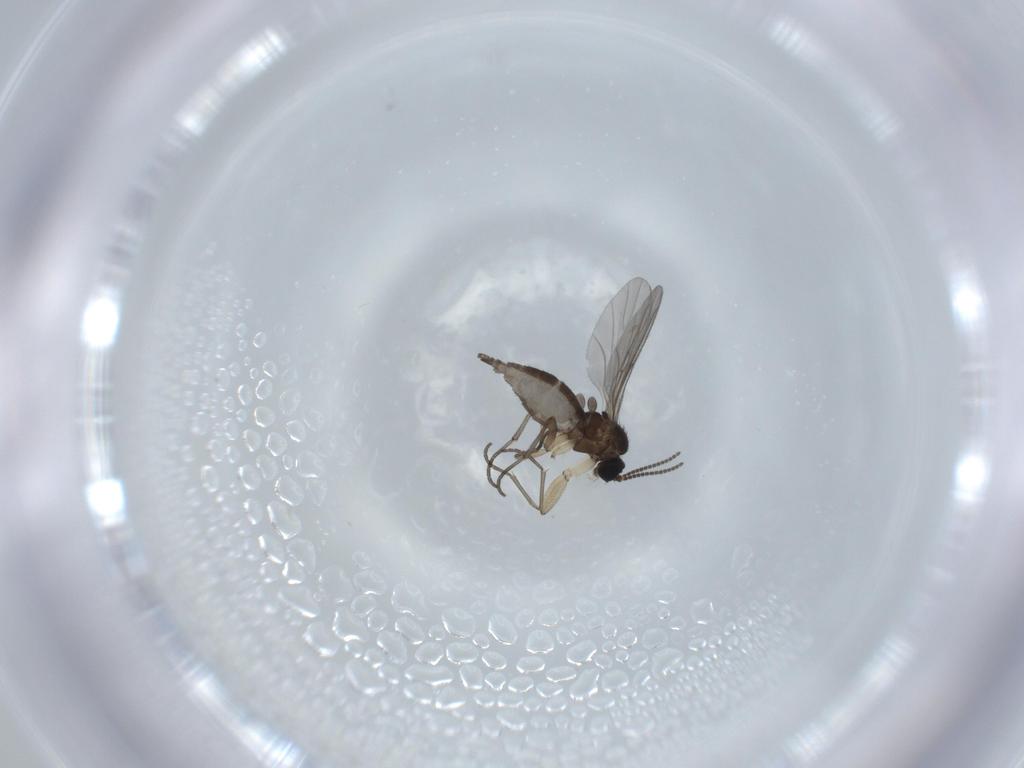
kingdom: Animalia
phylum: Arthropoda
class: Insecta
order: Diptera
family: Sciaridae
